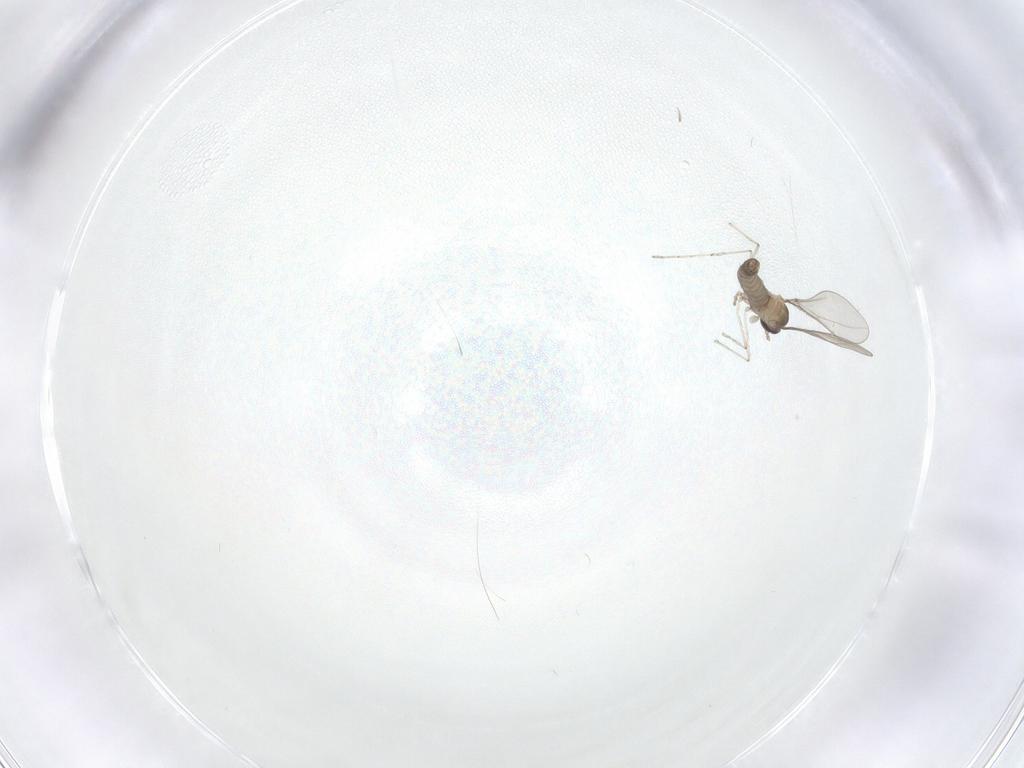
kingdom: Animalia
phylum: Arthropoda
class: Insecta
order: Diptera
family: Cecidomyiidae
